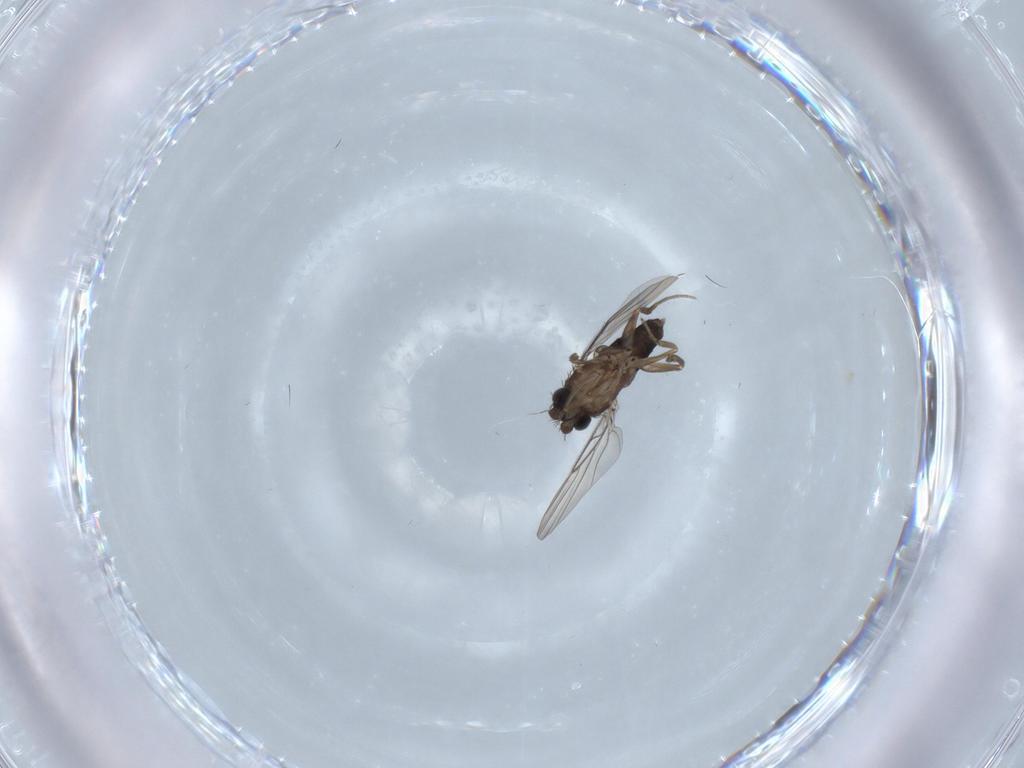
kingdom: Animalia
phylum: Arthropoda
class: Insecta
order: Diptera
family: Phoridae
